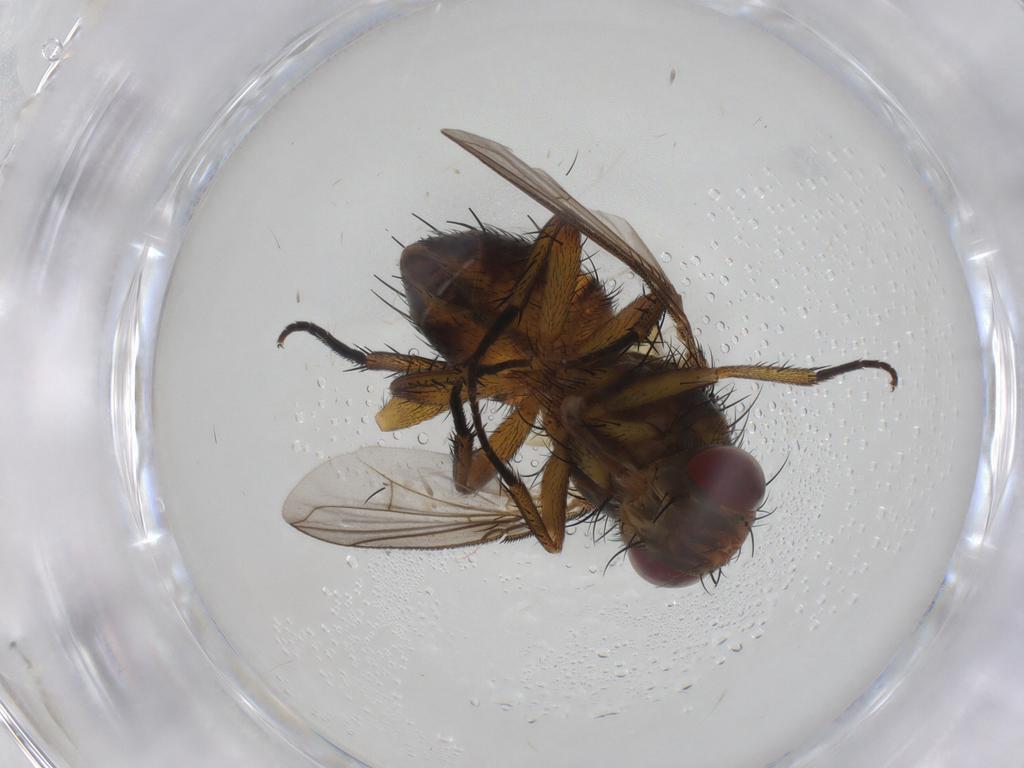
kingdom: Animalia
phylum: Arthropoda
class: Insecta
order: Diptera
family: Tachinidae
